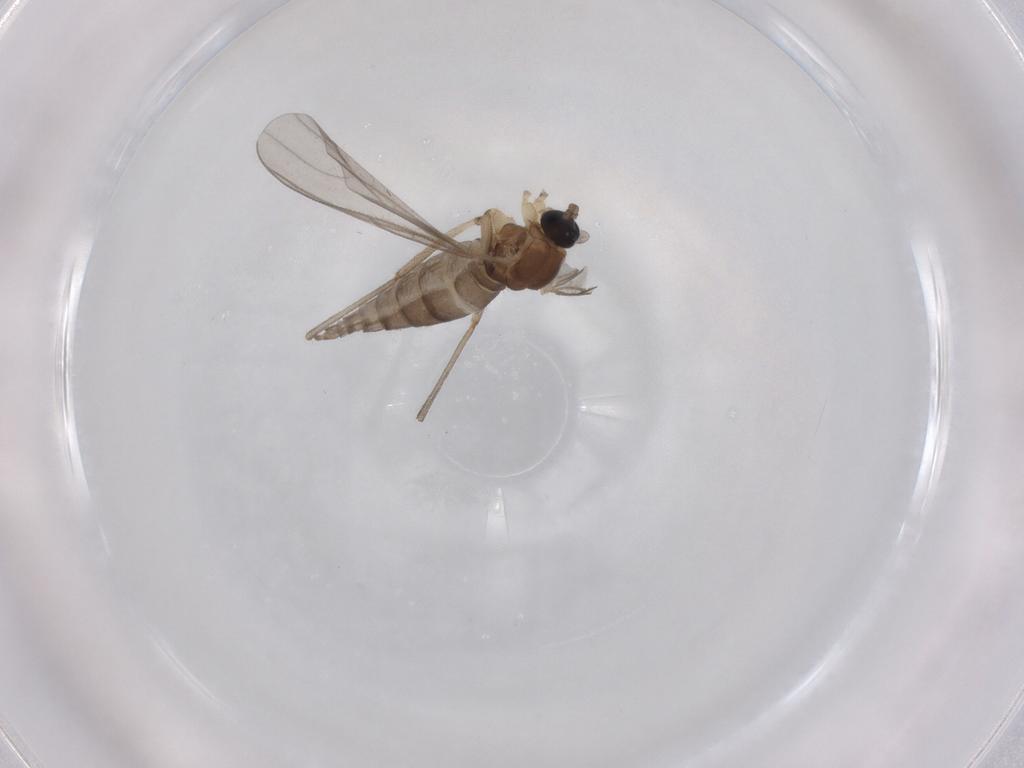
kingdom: Animalia
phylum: Arthropoda
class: Insecta
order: Diptera
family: Sciaridae
